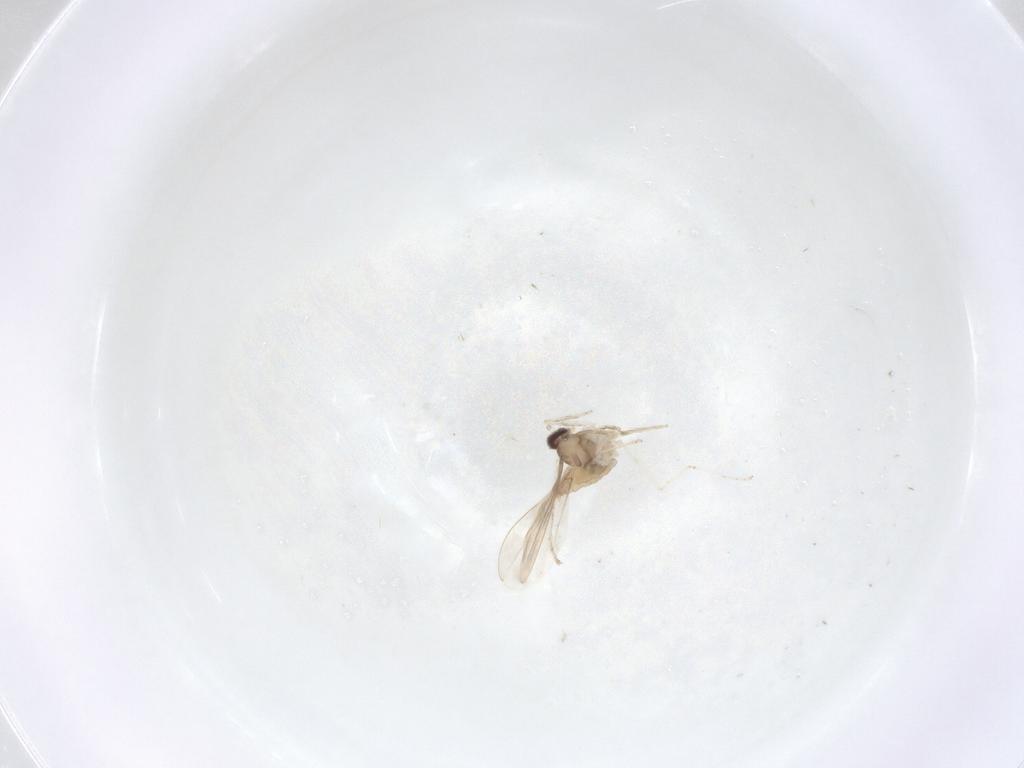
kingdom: Animalia
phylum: Arthropoda
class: Insecta
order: Diptera
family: Cecidomyiidae
